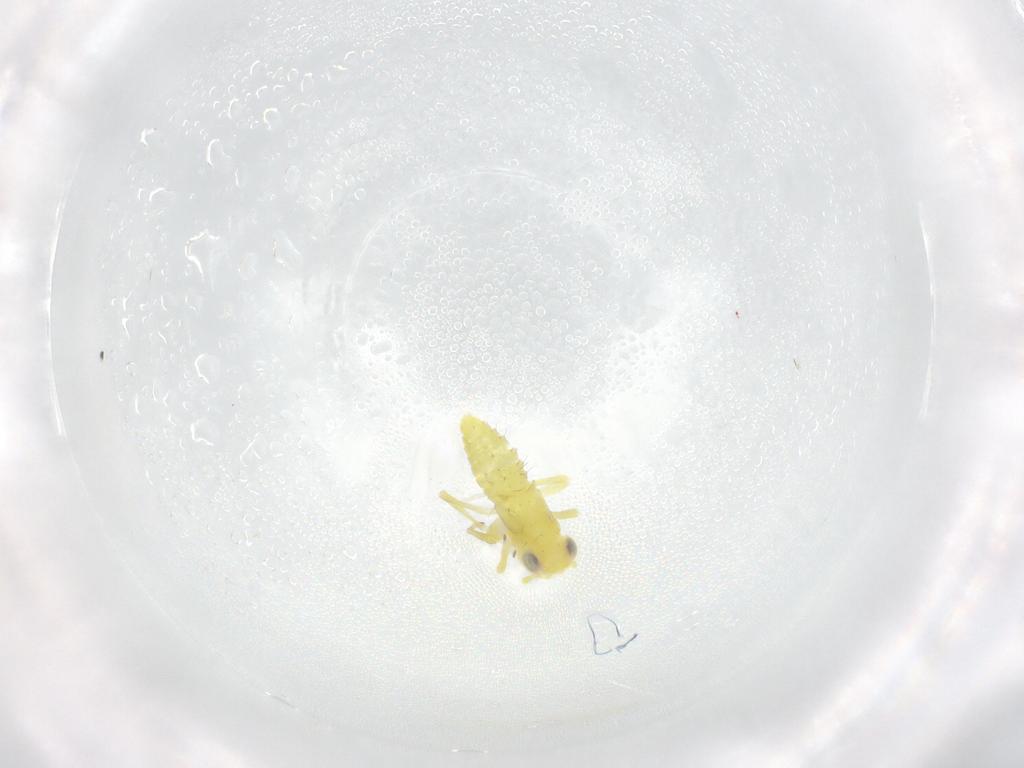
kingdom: Animalia
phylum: Arthropoda
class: Insecta
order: Hemiptera
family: Cicadellidae
